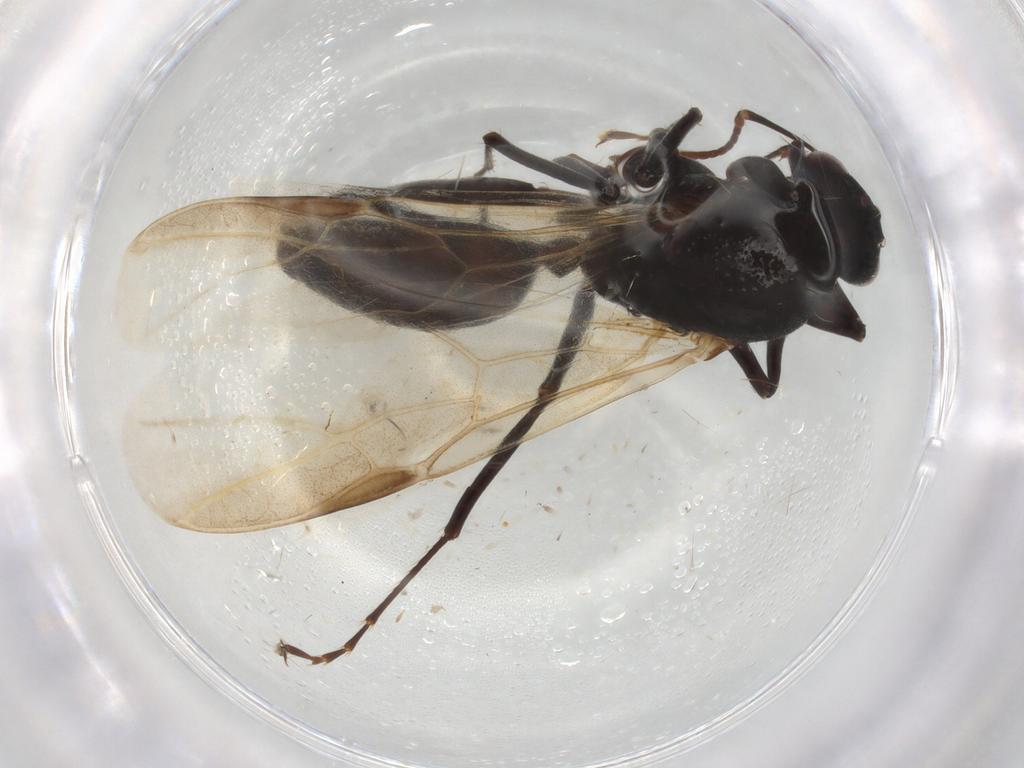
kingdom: Animalia
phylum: Arthropoda
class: Insecta
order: Hymenoptera
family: Formicidae
